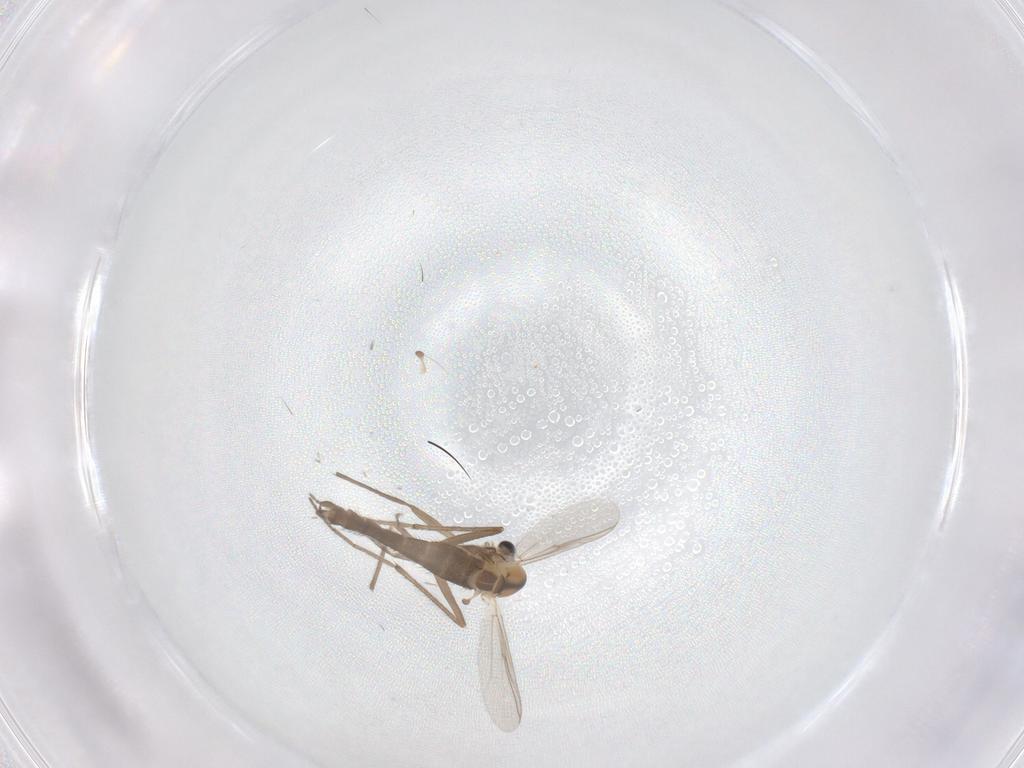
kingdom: Animalia
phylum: Arthropoda
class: Insecta
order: Diptera
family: Chironomidae
